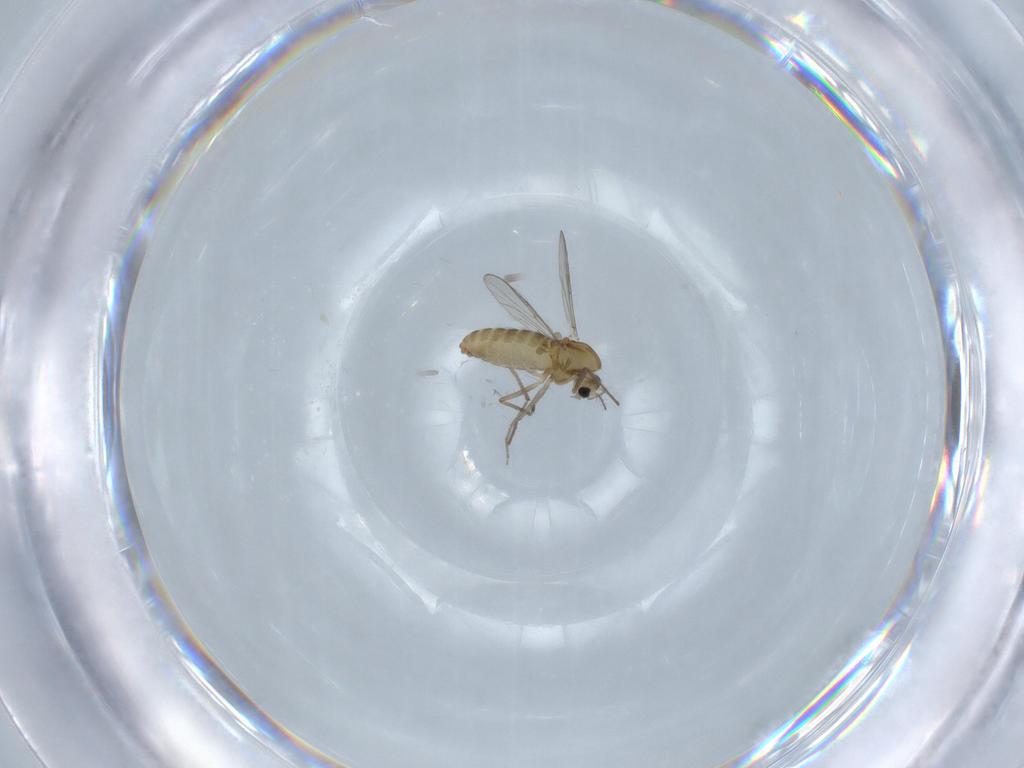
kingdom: Animalia
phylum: Arthropoda
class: Insecta
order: Diptera
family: Chironomidae
